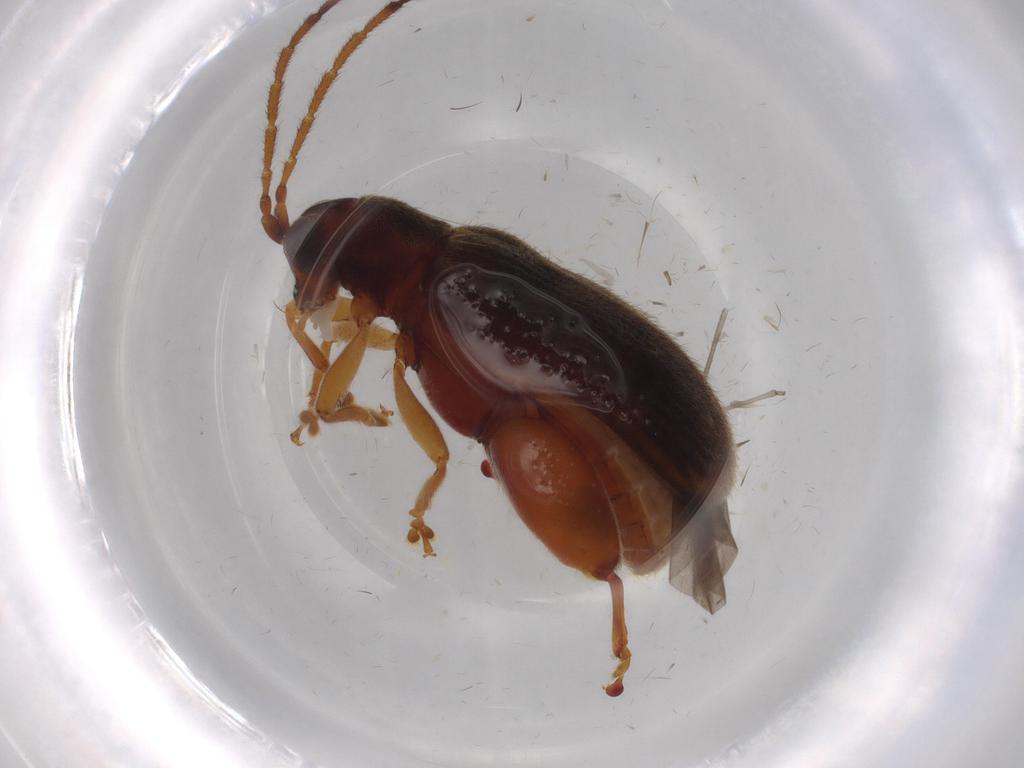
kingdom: Animalia
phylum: Arthropoda
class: Insecta
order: Coleoptera
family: Chrysomelidae
